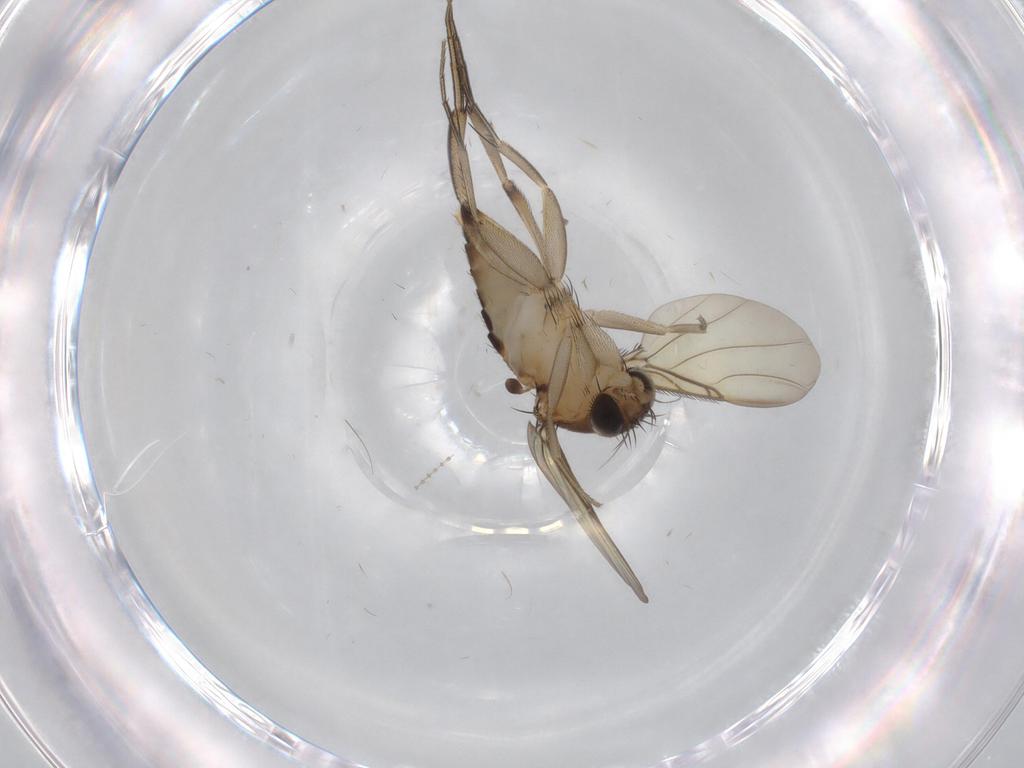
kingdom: Animalia
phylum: Arthropoda
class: Insecta
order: Diptera
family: Phoridae
